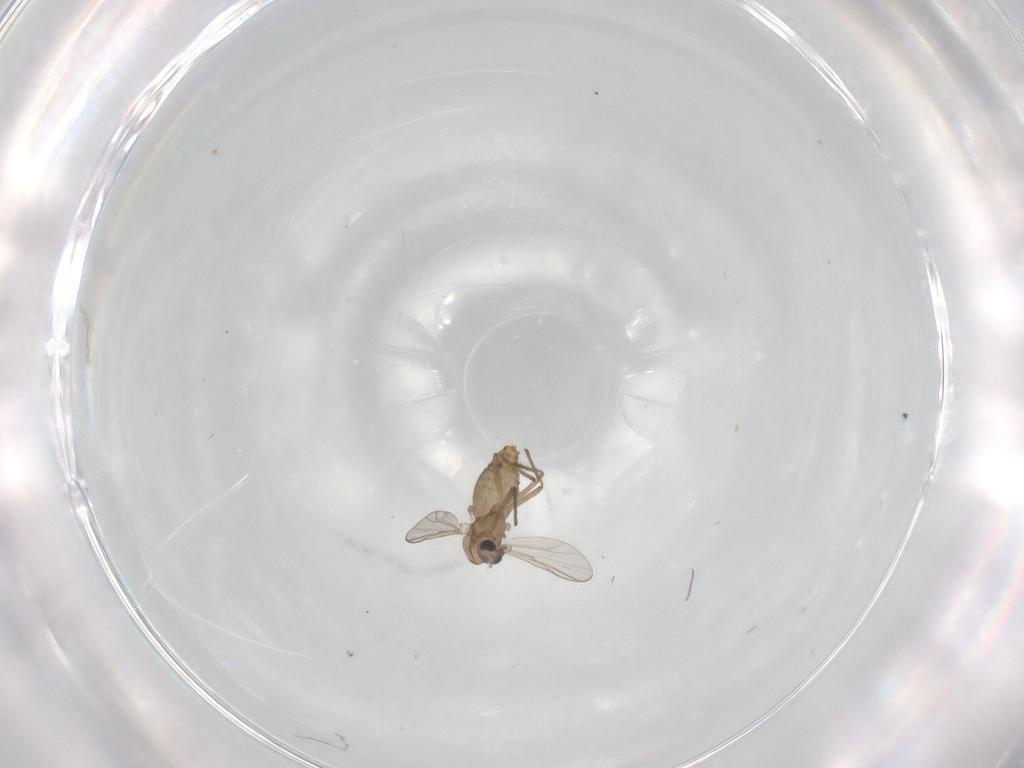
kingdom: Animalia
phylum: Arthropoda
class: Insecta
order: Diptera
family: Chironomidae
